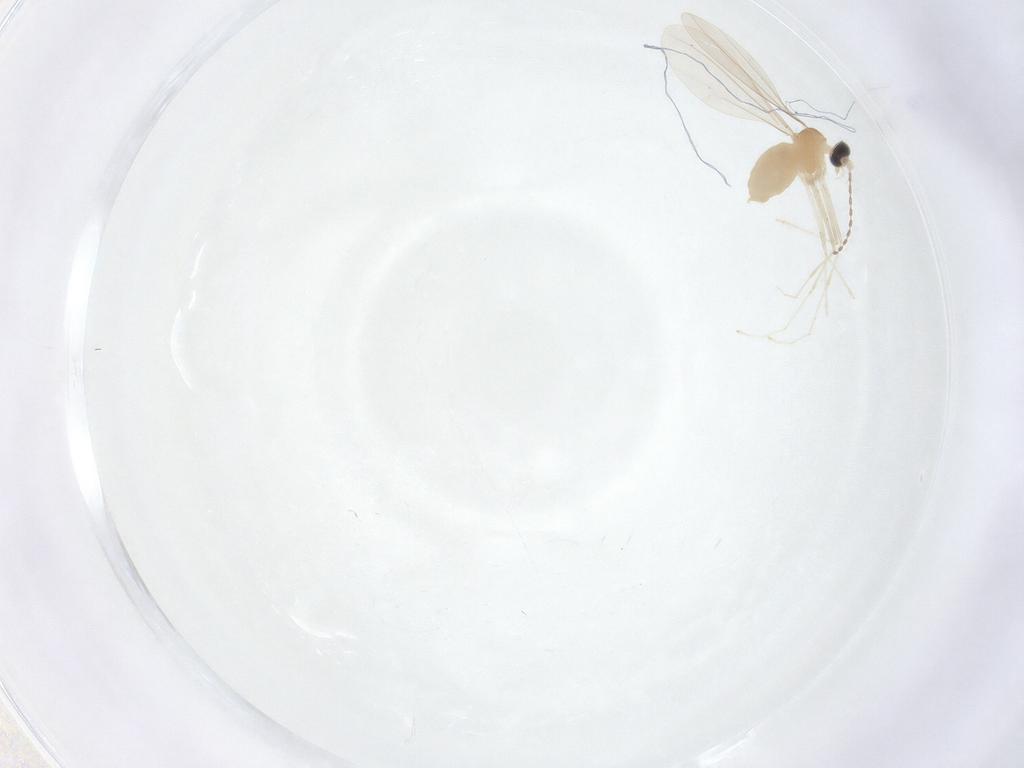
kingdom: Animalia
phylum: Arthropoda
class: Insecta
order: Diptera
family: Cecidomyiidae
